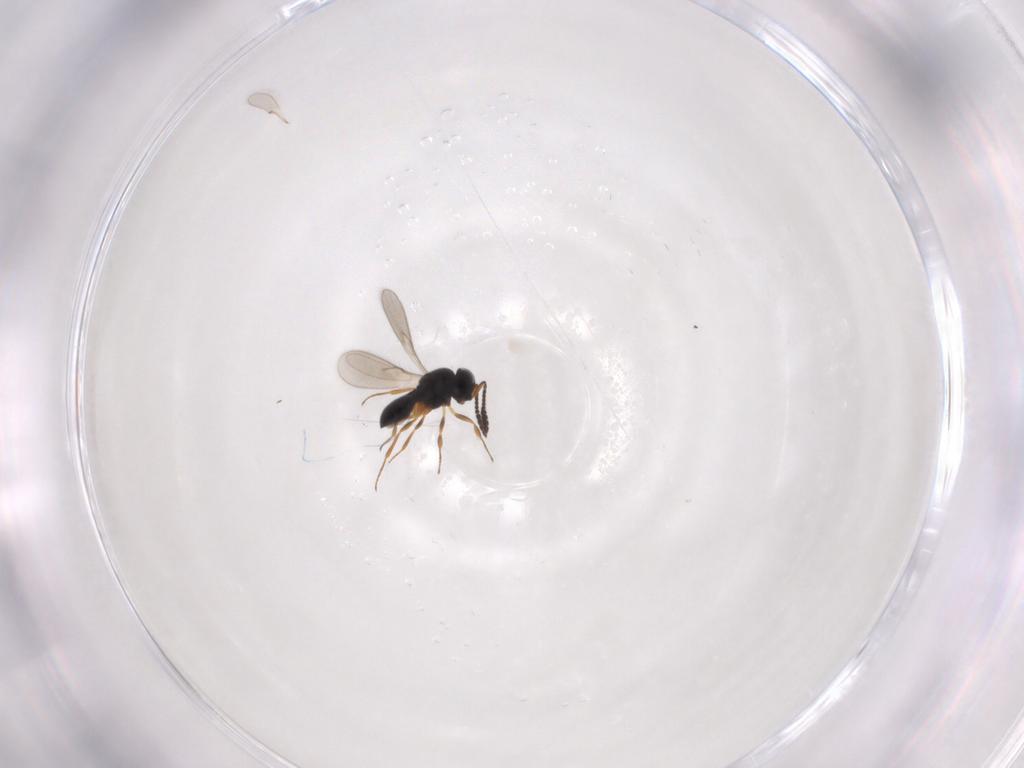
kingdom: Animalia
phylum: Arthropoda
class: Insecta
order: Hymenoptera
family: Scelionidae
